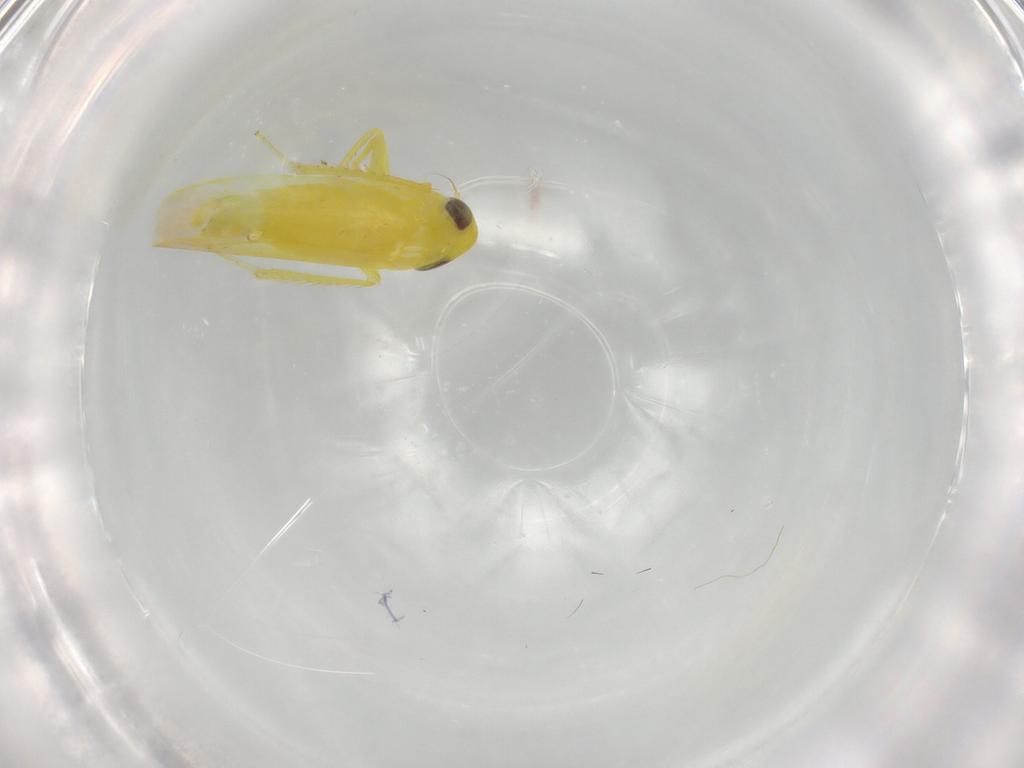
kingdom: Animalia
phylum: Arthropoda
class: Insecta
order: Hemiptera
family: Cicadellidae
